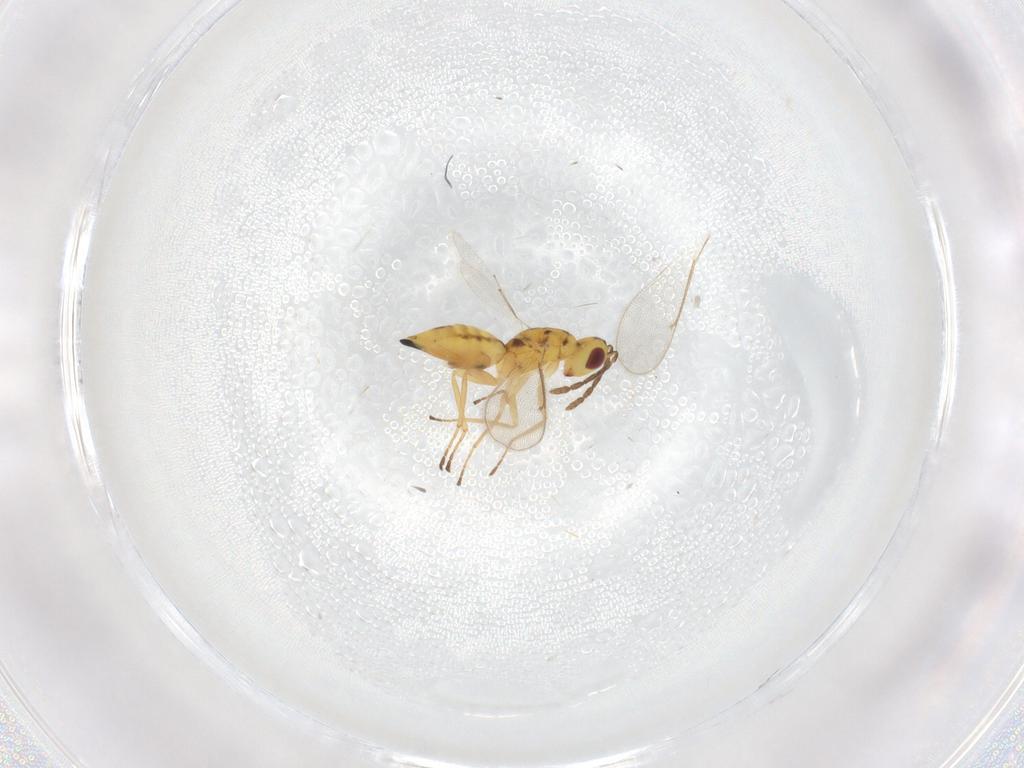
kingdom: Animalia
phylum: Arthropoda
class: Insecta
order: Hymenoptera
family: Eulophidae
